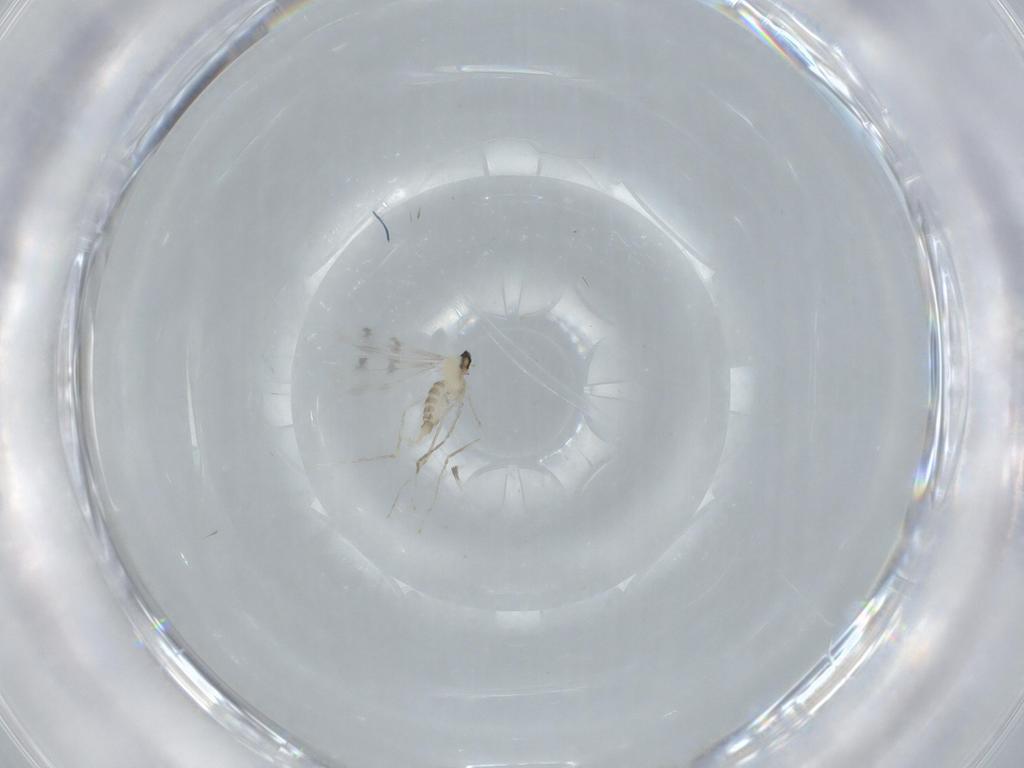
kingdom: Animalia
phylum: Arthropoda
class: Insecta
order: Diptera
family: Cecidomyiidae
